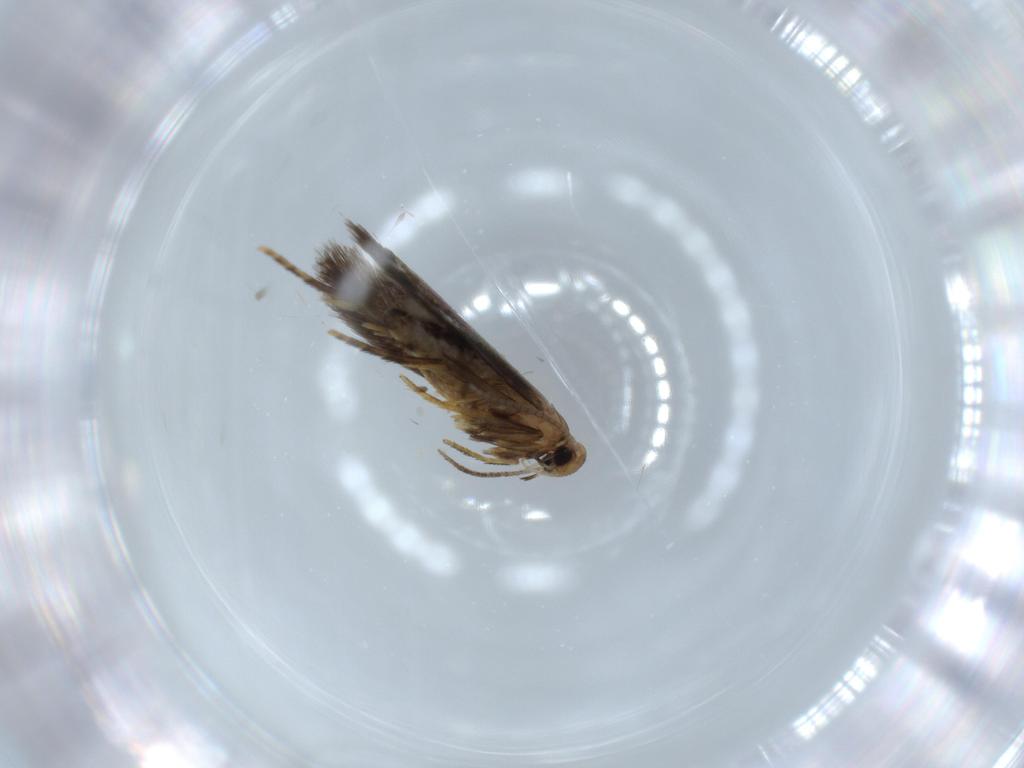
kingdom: Animalia
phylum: Arthropoda
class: Insecta
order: Lepidoptera
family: Heliozelidae
